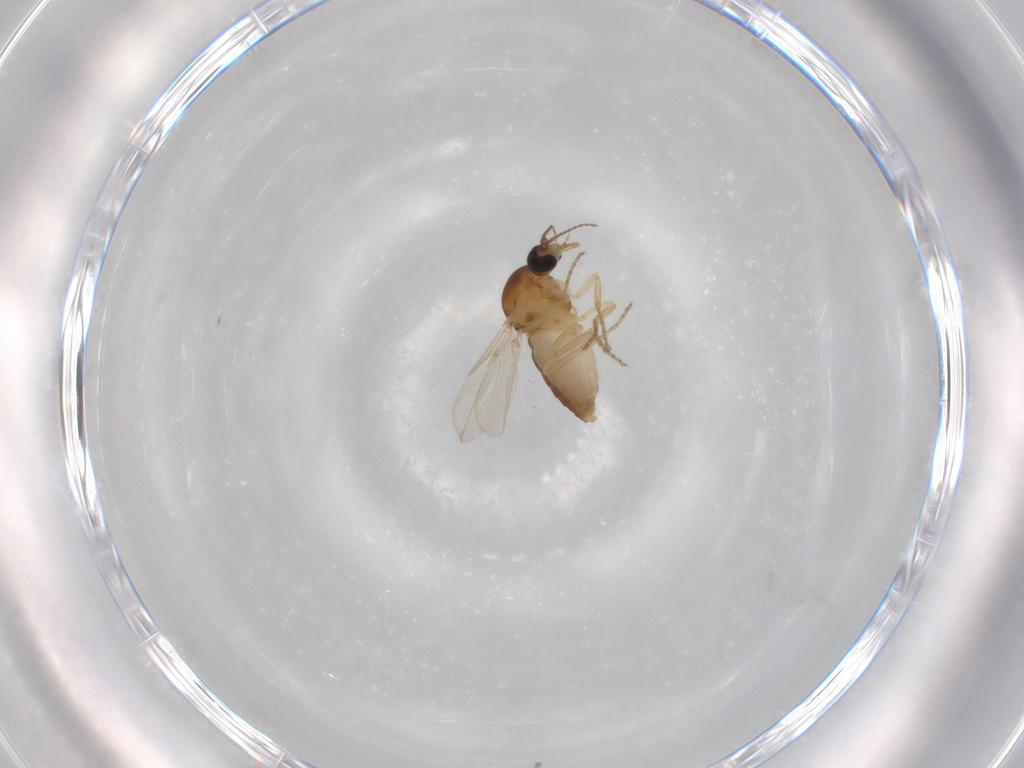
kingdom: Animalia
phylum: Arthropoda
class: Insecta
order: Diptera
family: Ceratopogonidae
